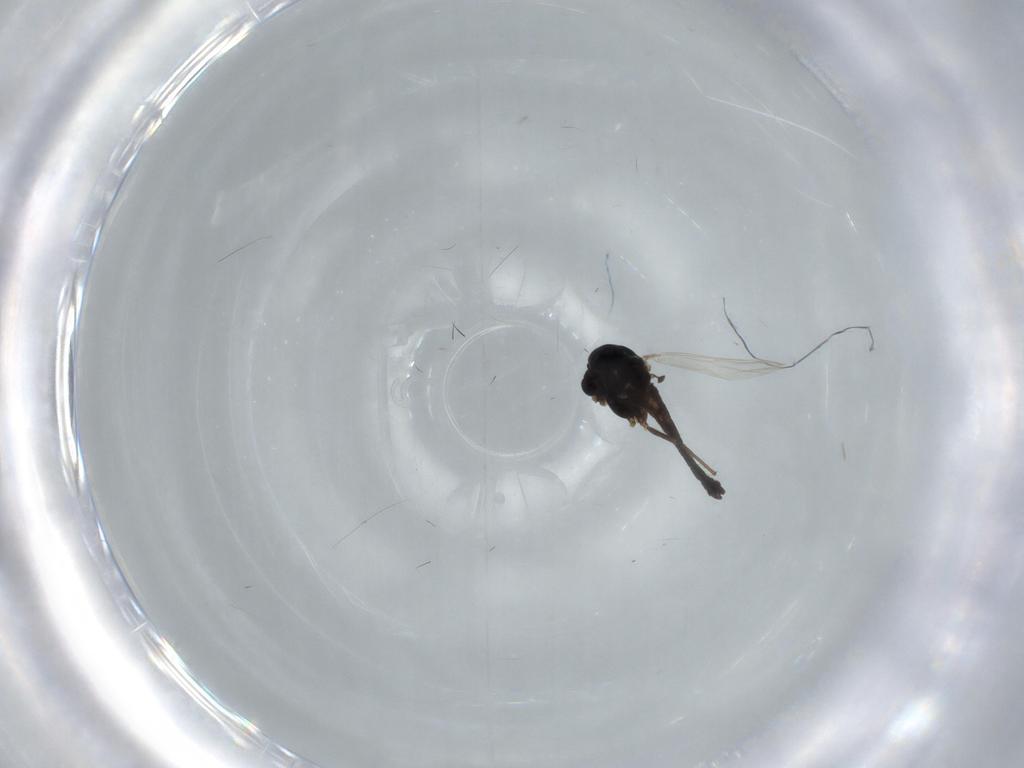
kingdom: Animalia
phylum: Arthropoda
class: Insecta
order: Diptera
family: Chironomidae
